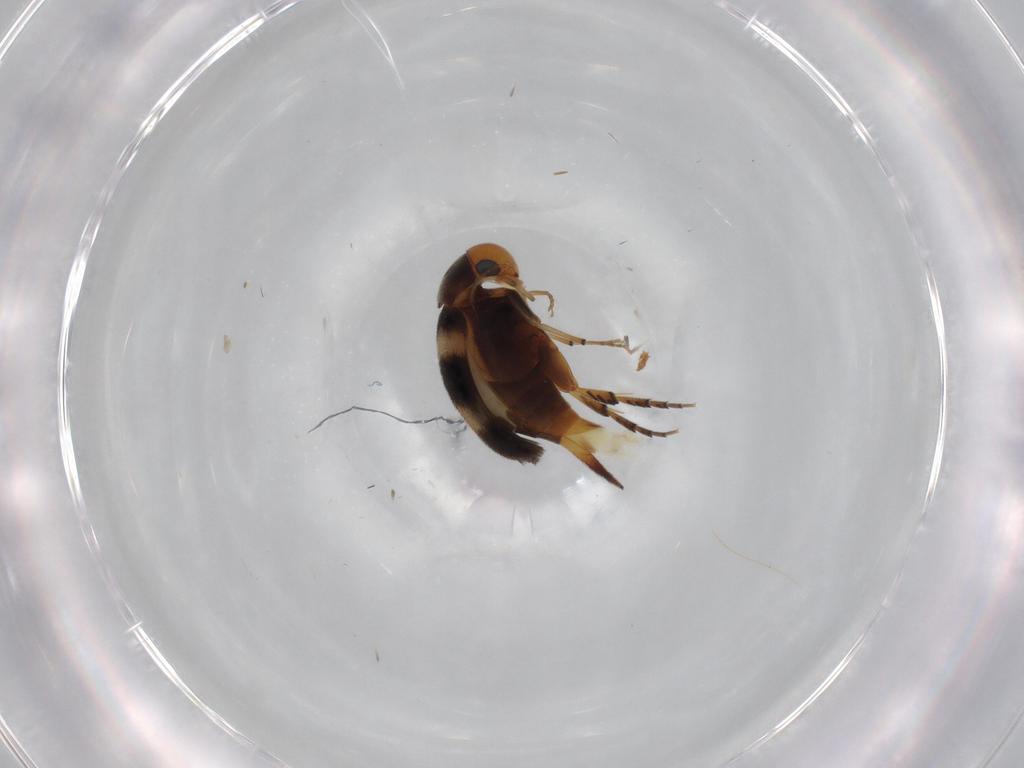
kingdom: Animalia
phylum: Arthropoda
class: Insecta
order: Coleoptera
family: Mordellidae
